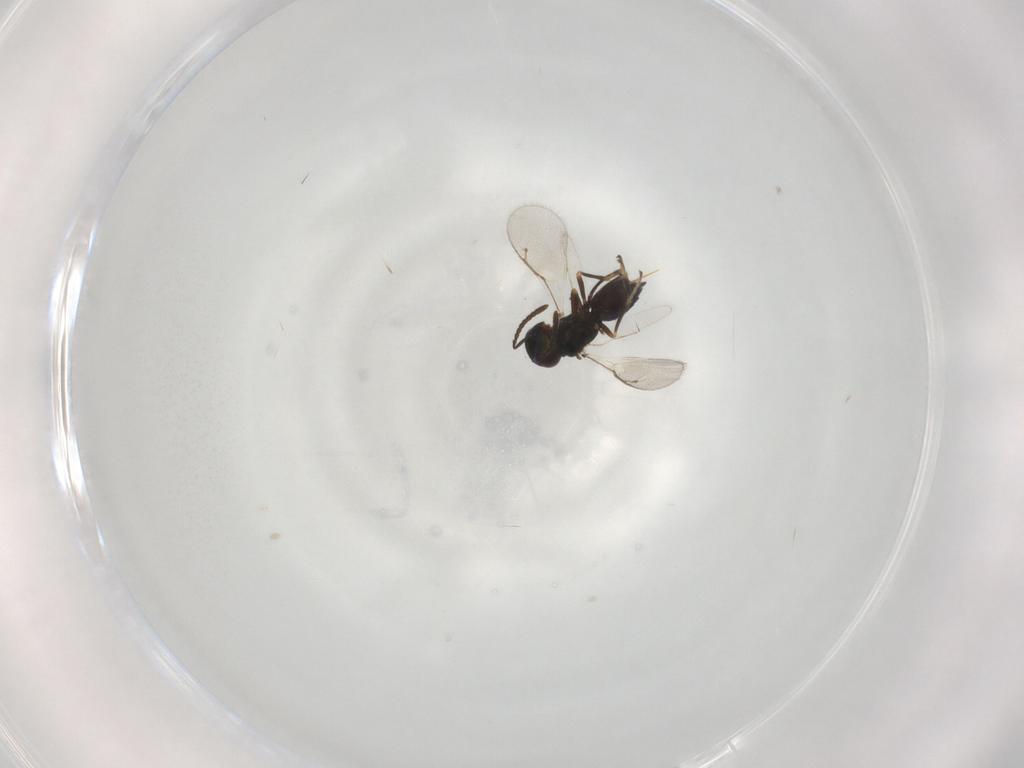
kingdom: Animalia
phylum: Arthropoda
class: Insecta
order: Hymenoptera
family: Pteromalidae
